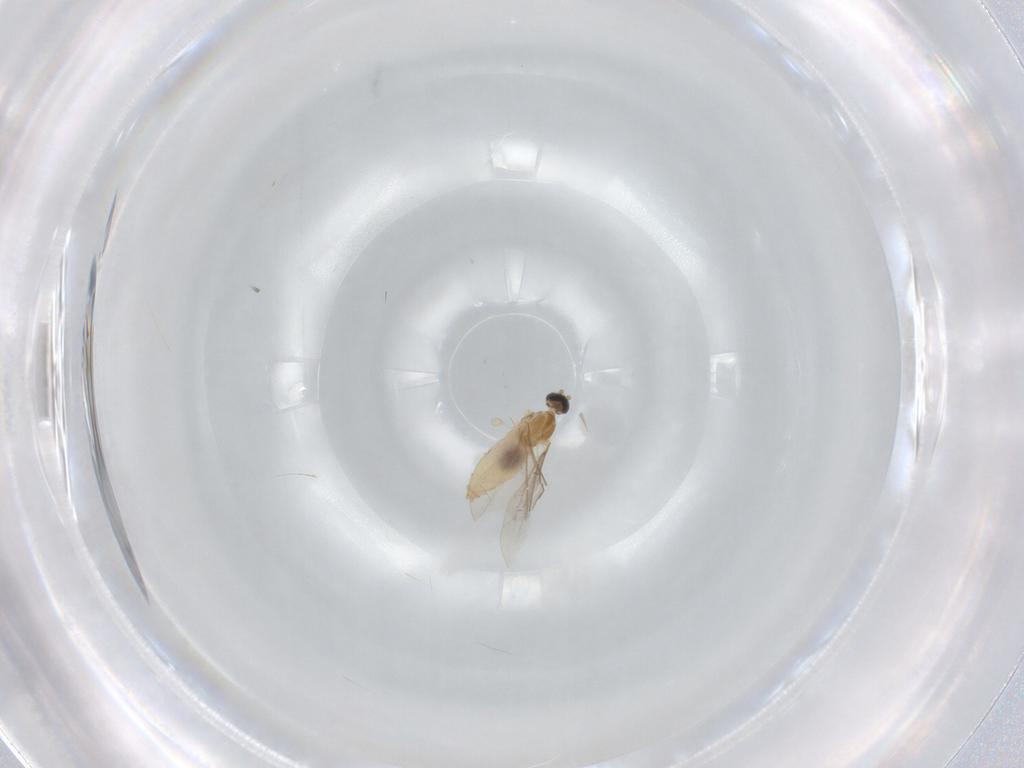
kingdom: Animalia
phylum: Arthropoda
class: Insecta
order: Diptera
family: Cecidomyiidae
